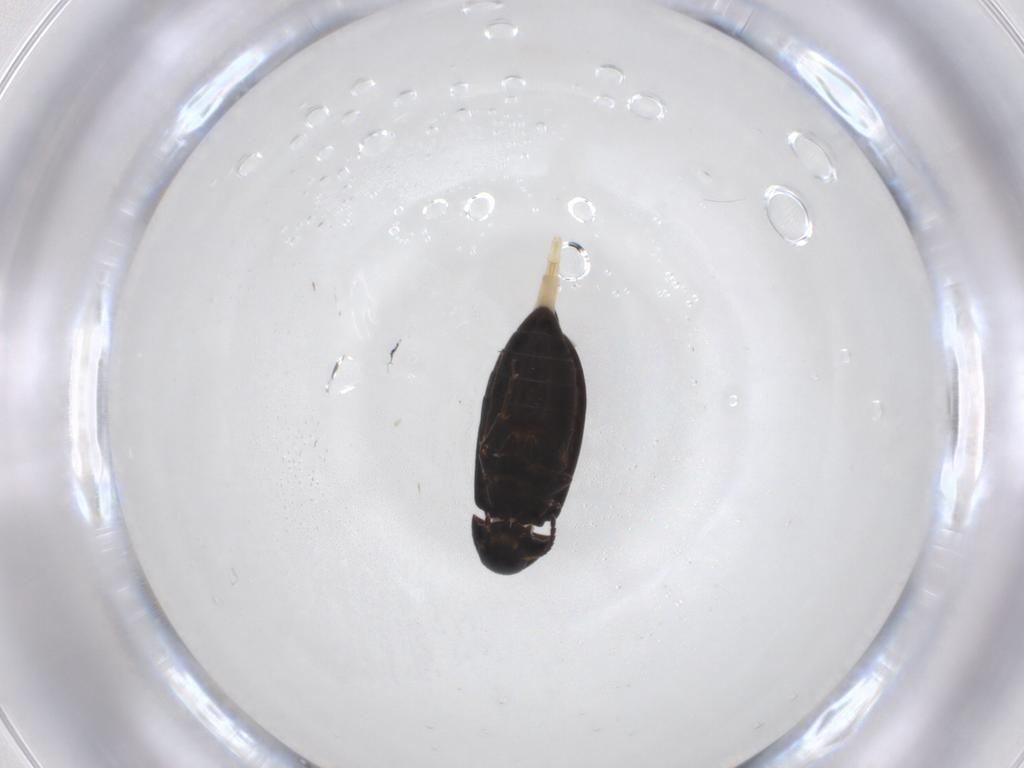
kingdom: Animalia
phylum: Arthropoda
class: Insecta
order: Coleoptera
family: Scraptiidae
